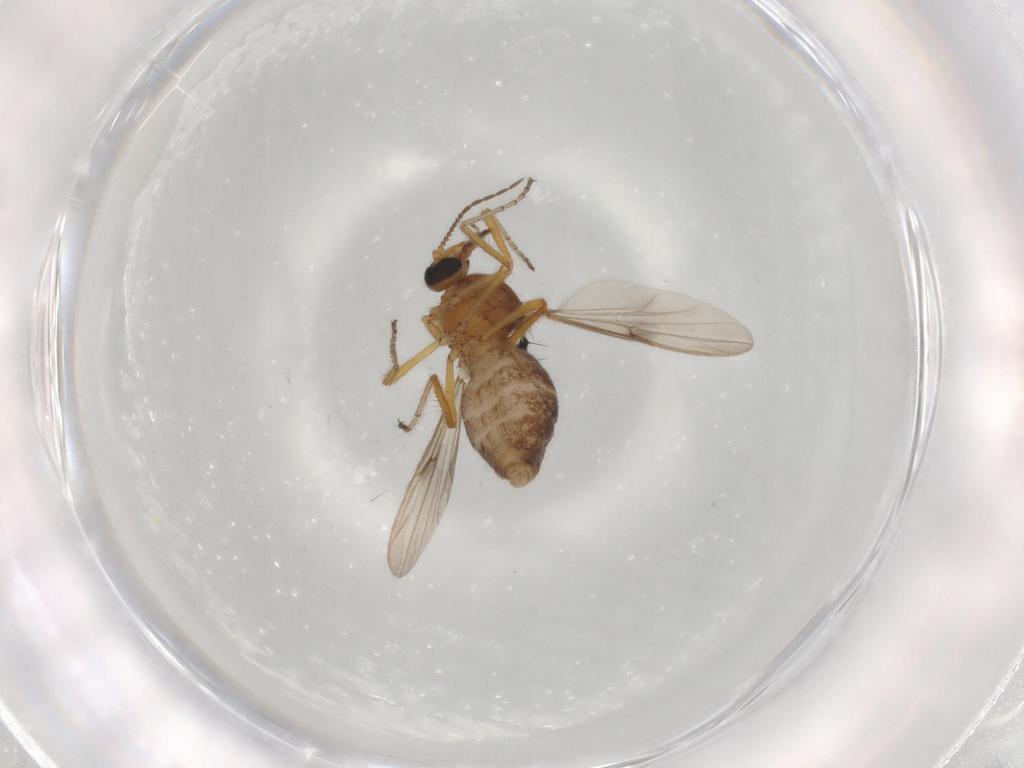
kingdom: Animalia
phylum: Arthropoda
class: Insecta
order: Diptera
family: Ceratopogonidae
